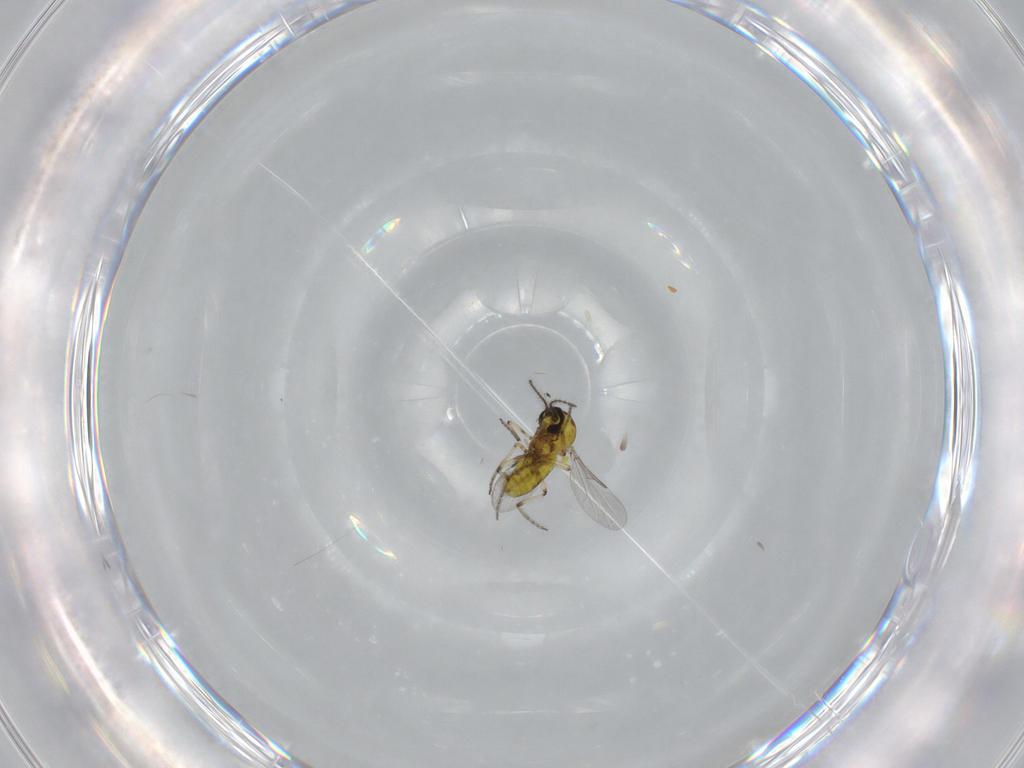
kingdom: Animalia
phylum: Arthropoda
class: Insecta
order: Diptera
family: Ceratopogonidae
